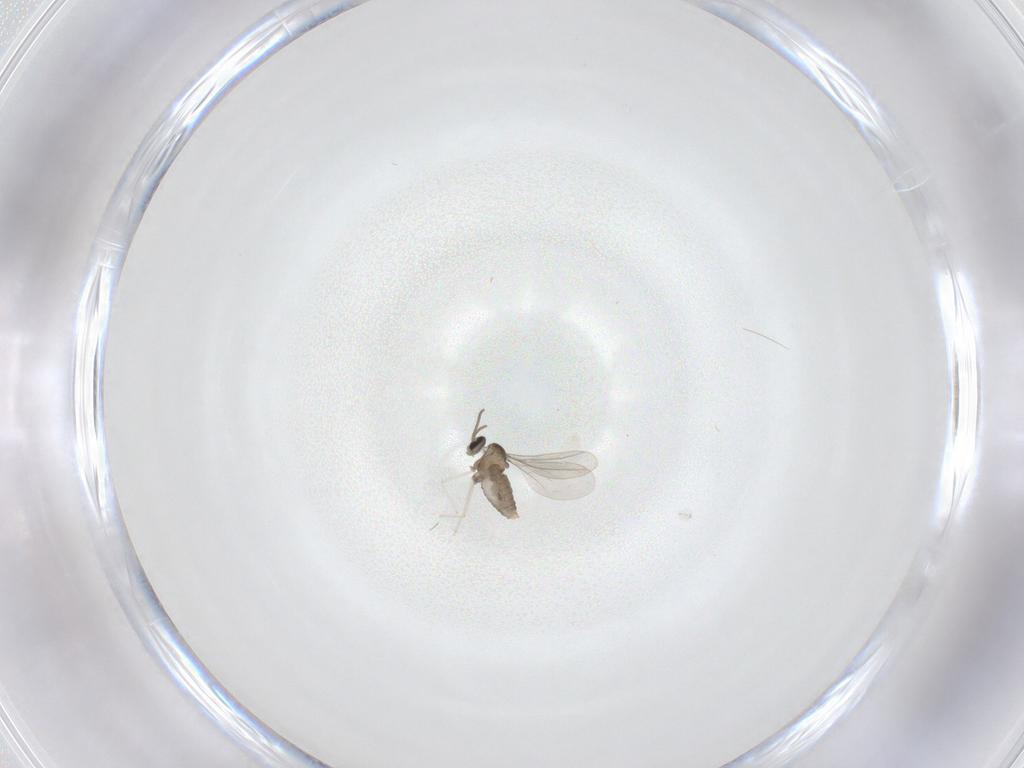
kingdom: Animalia
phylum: Arthropoda
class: Insecta
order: Diptera
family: Cecidomyiidae
